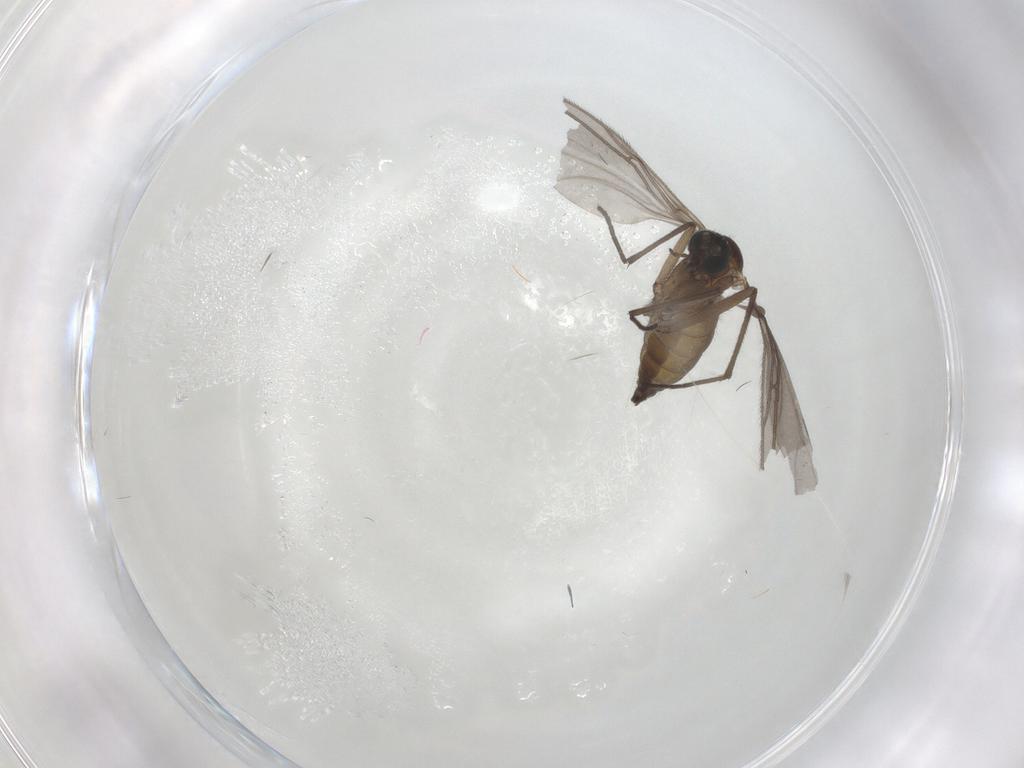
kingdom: Animalia
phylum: Arthropoda
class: Insecta
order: Diptera
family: Sciaridae
